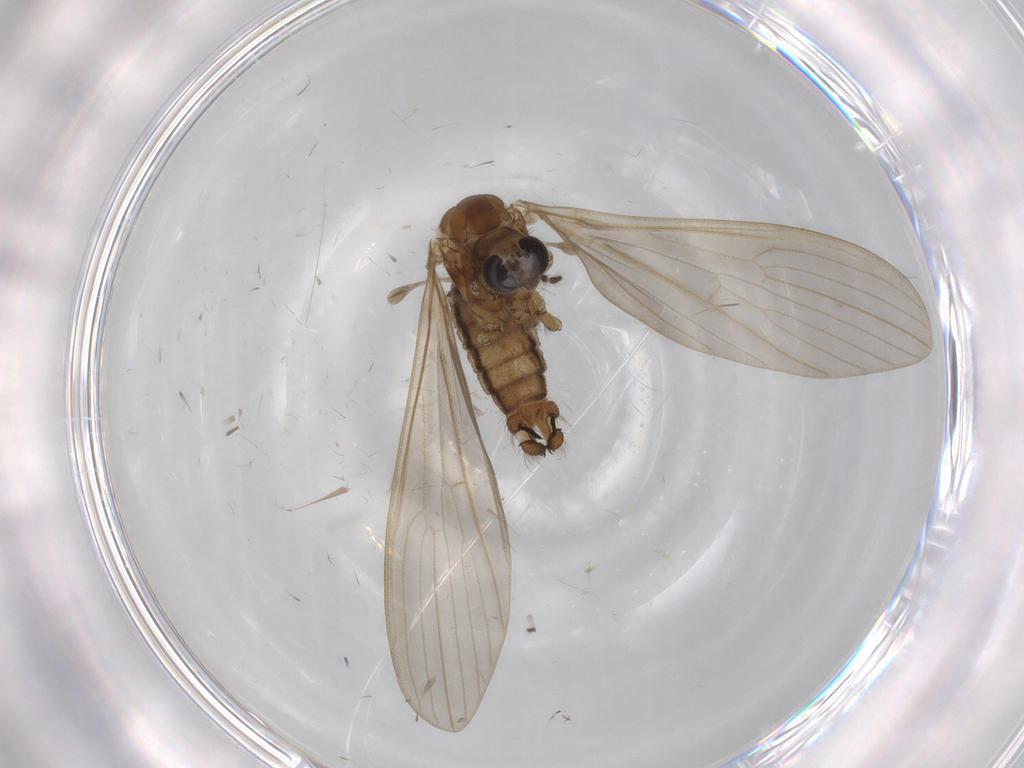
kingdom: Animalia
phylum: Arthropoda
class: Insecta
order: Diptera
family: Limoniidae
